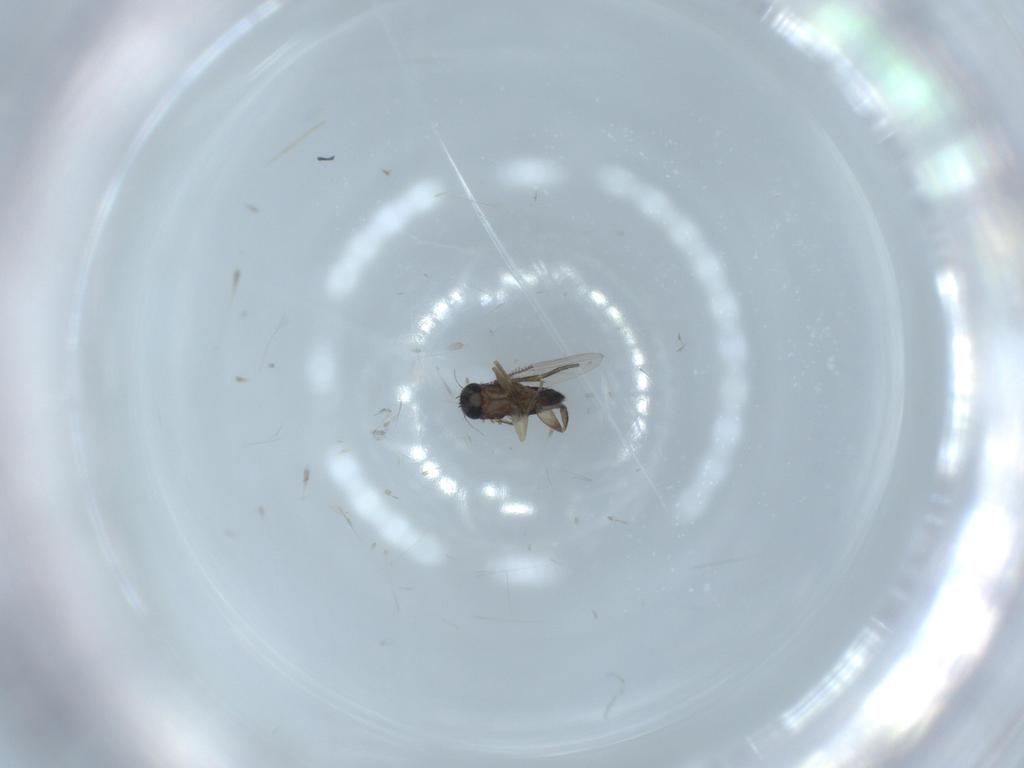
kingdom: Animalia
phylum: Arthropoda
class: Insecta
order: Diptera
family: Phoridae
